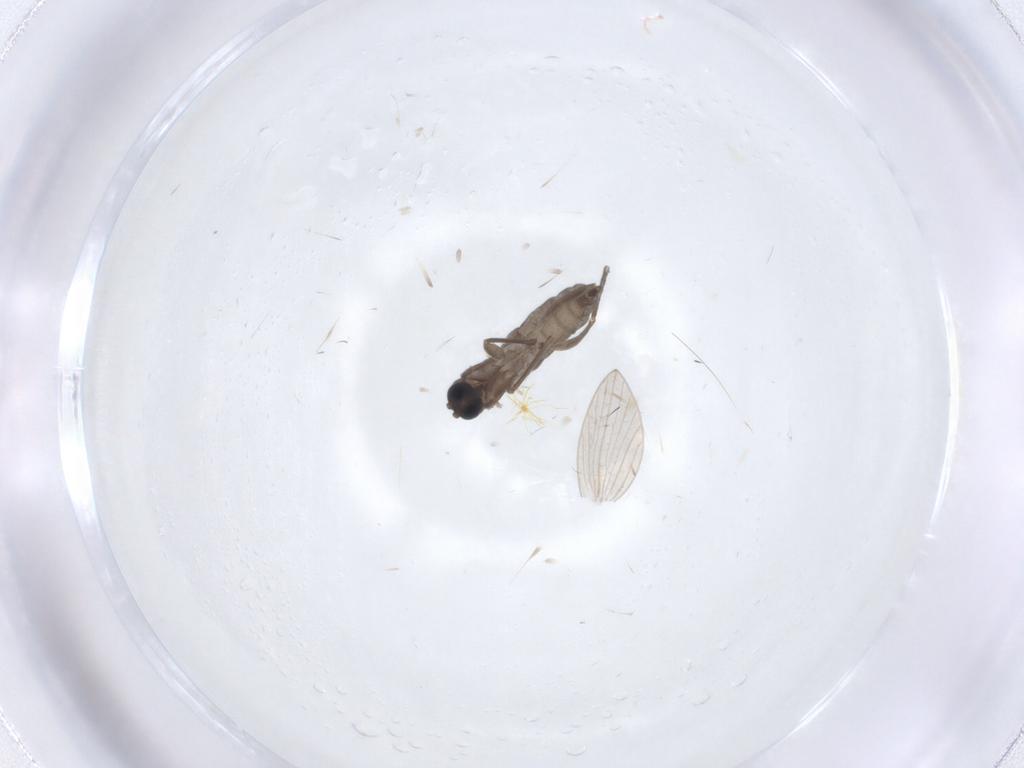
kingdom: Animalia
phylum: Arthropoda
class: Insecta
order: Diptera
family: Sciaridae
